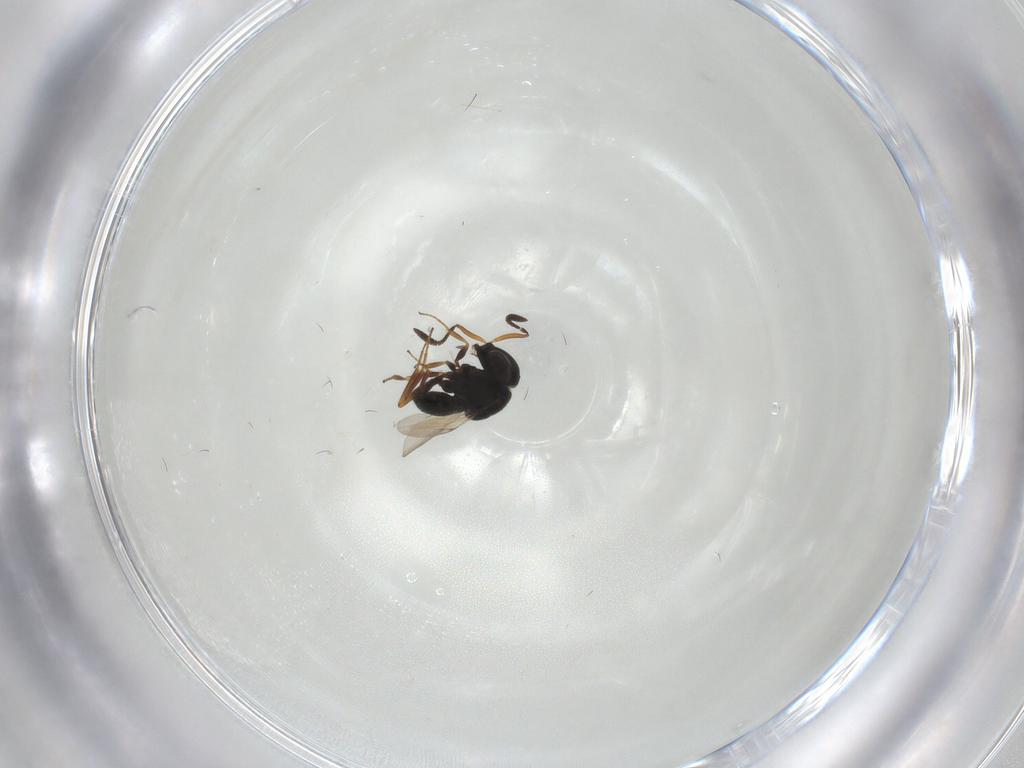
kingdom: Animalia
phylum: Arthropoda
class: Insecta
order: Hymenoptera
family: Scelionidae
